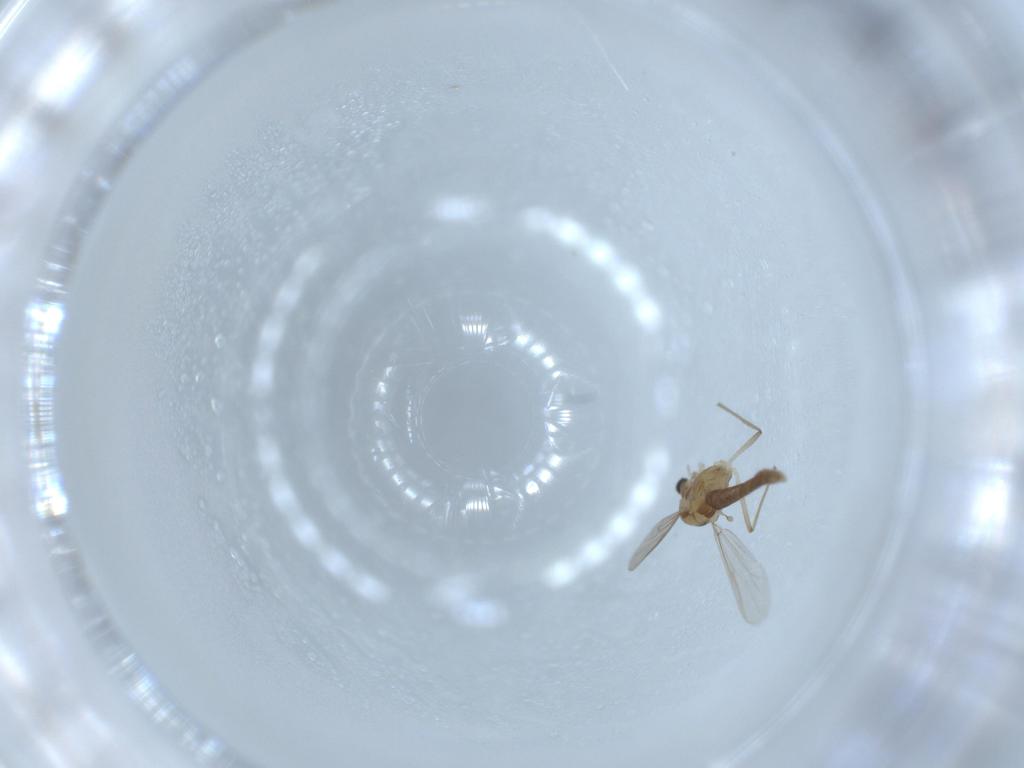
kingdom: Animalia
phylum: Arthropoda
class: Insecta
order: Diptera
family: Chironomidae
